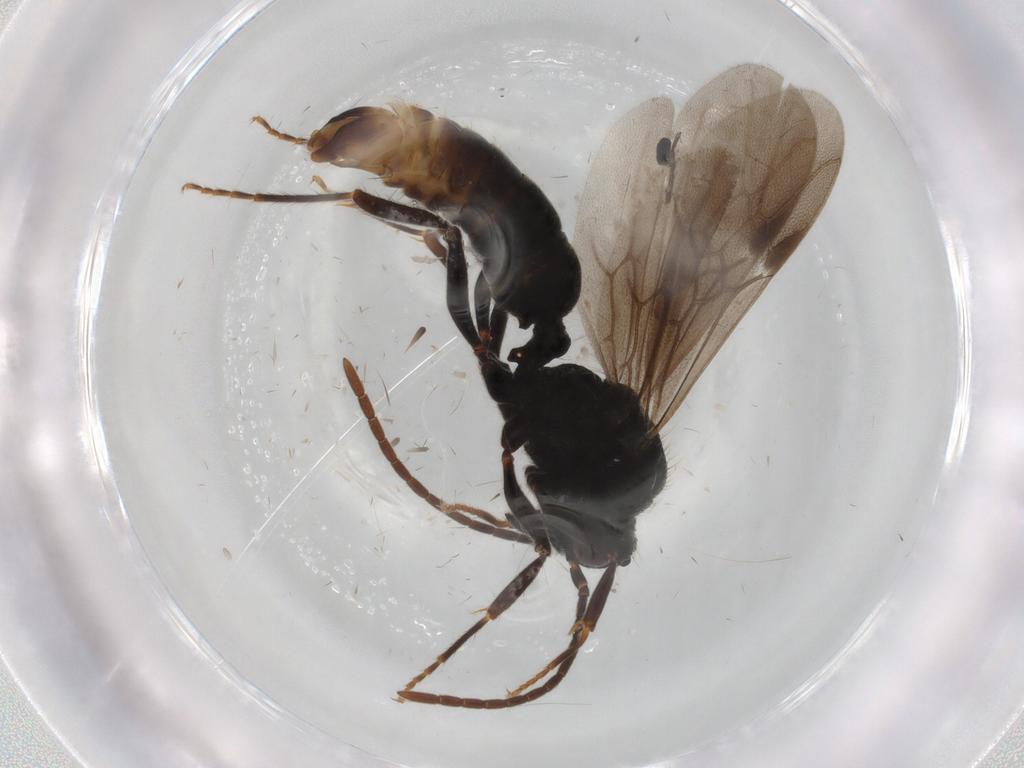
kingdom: Animalia
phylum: Arthropoda
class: Insecta
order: Hymenoptera
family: Formicidae
